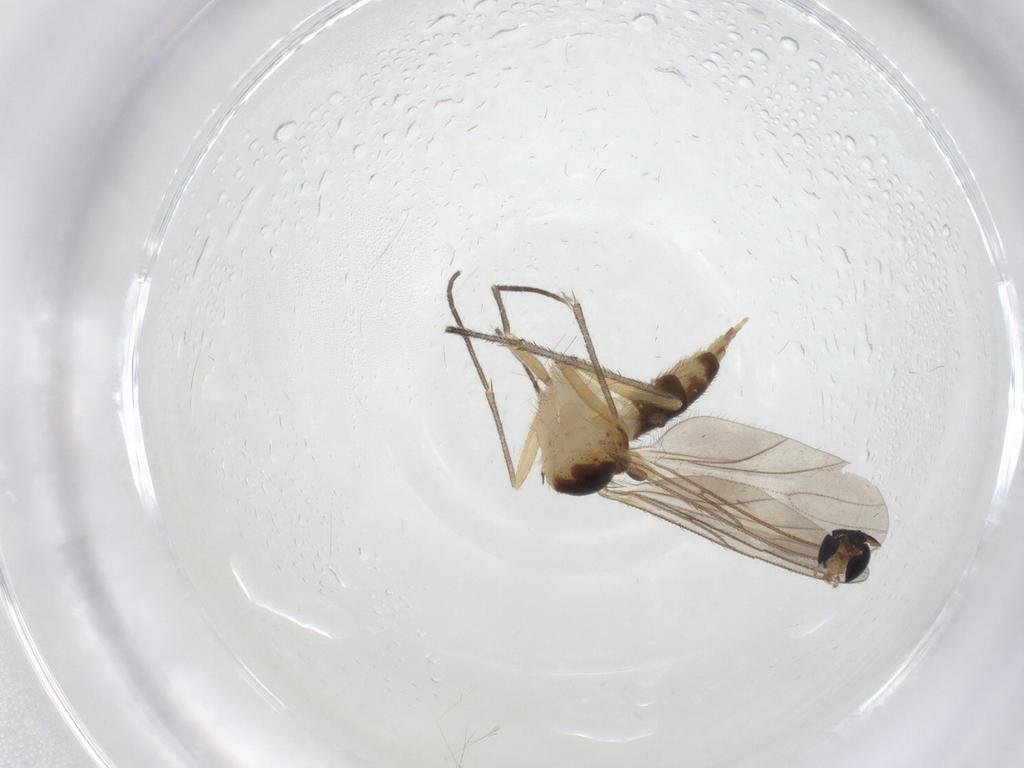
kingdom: Animalia
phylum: Arthropoda
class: Insecta
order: Diptera
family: Sciaridae
